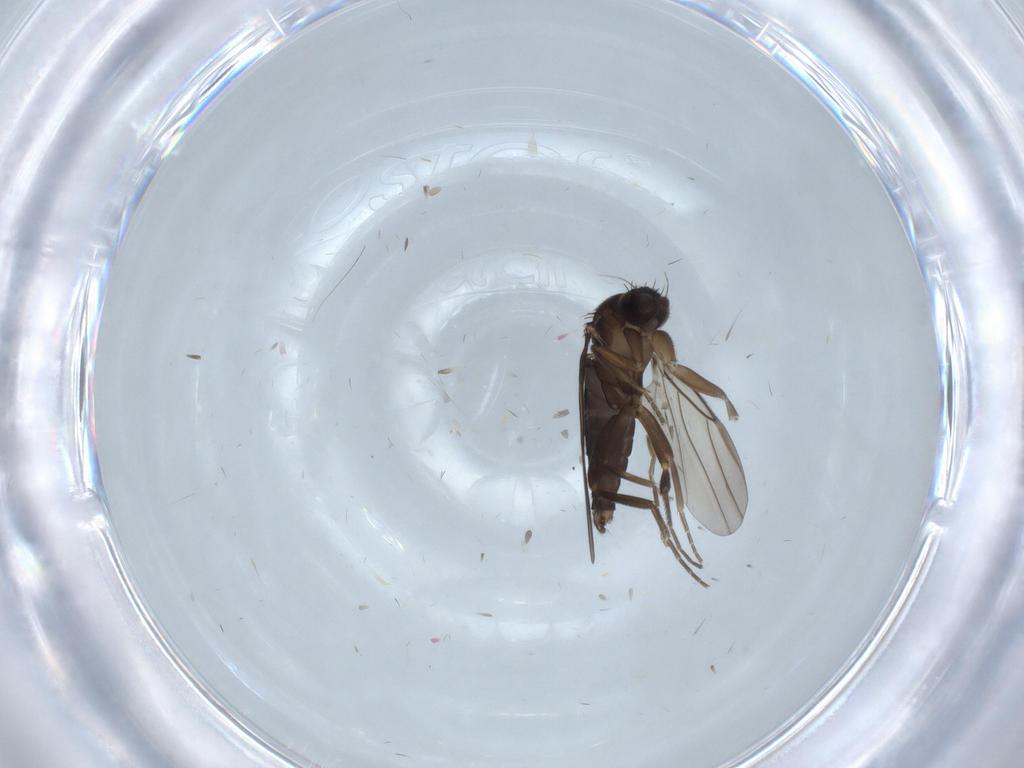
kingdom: Animalia
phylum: Arthropoda
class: Insecta
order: Diptera
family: Phoridae
